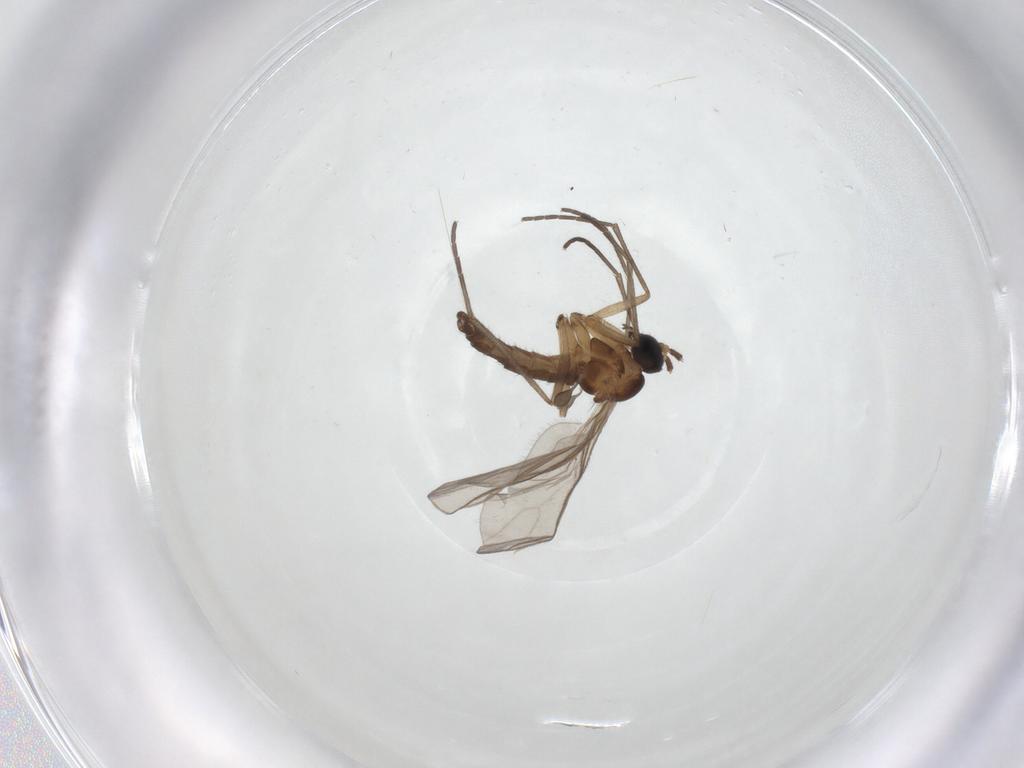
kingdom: Animalia
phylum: Arthropoda
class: Insecta
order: Diptera
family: Sciaridae
